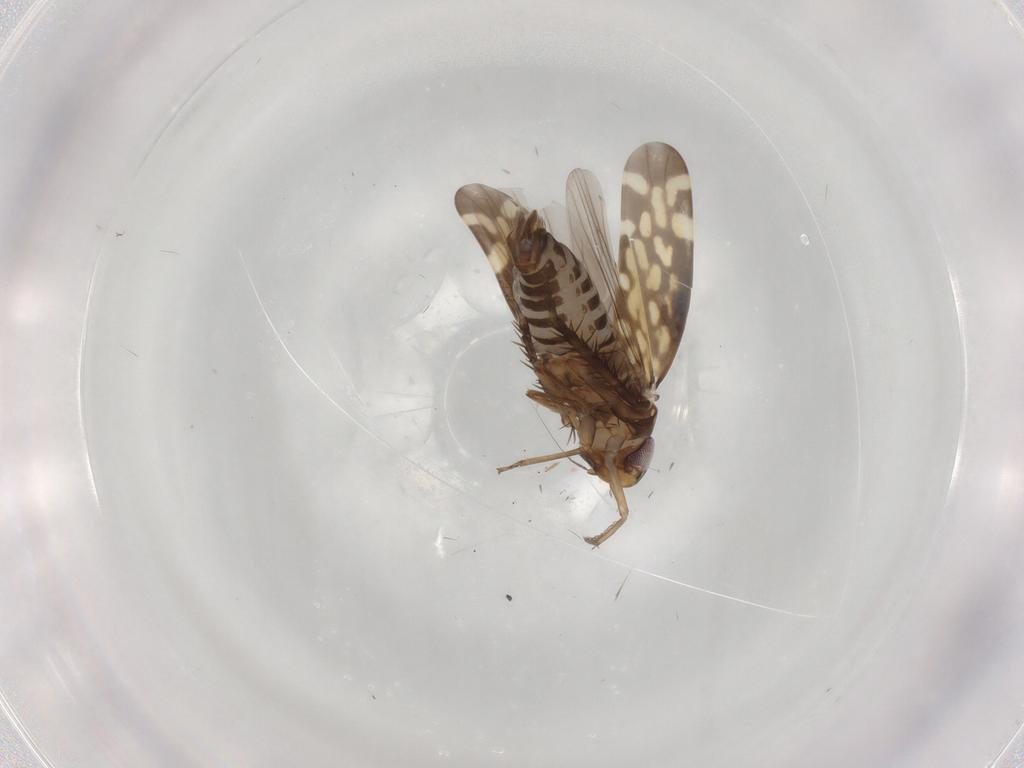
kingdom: Animalia
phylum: Arthropoda
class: Insecta
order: Hemiptera
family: Cicadellidae
